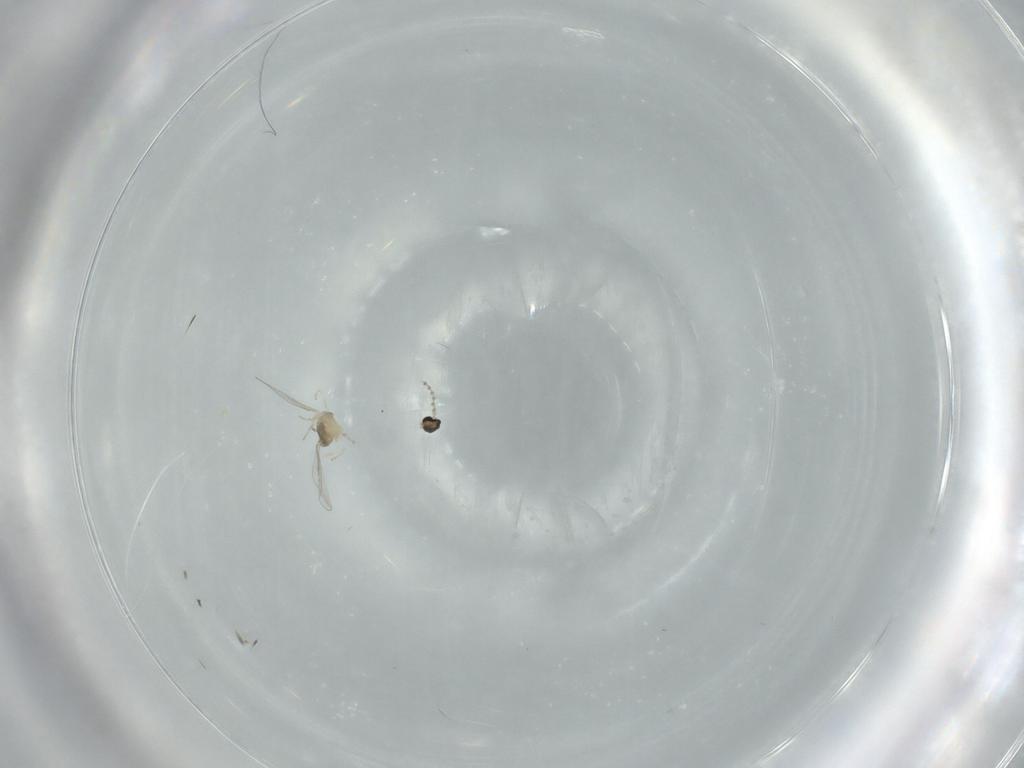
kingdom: Animalia
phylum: Arthropoda
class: Insecta
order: Diptera
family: Cecidomyiidae
